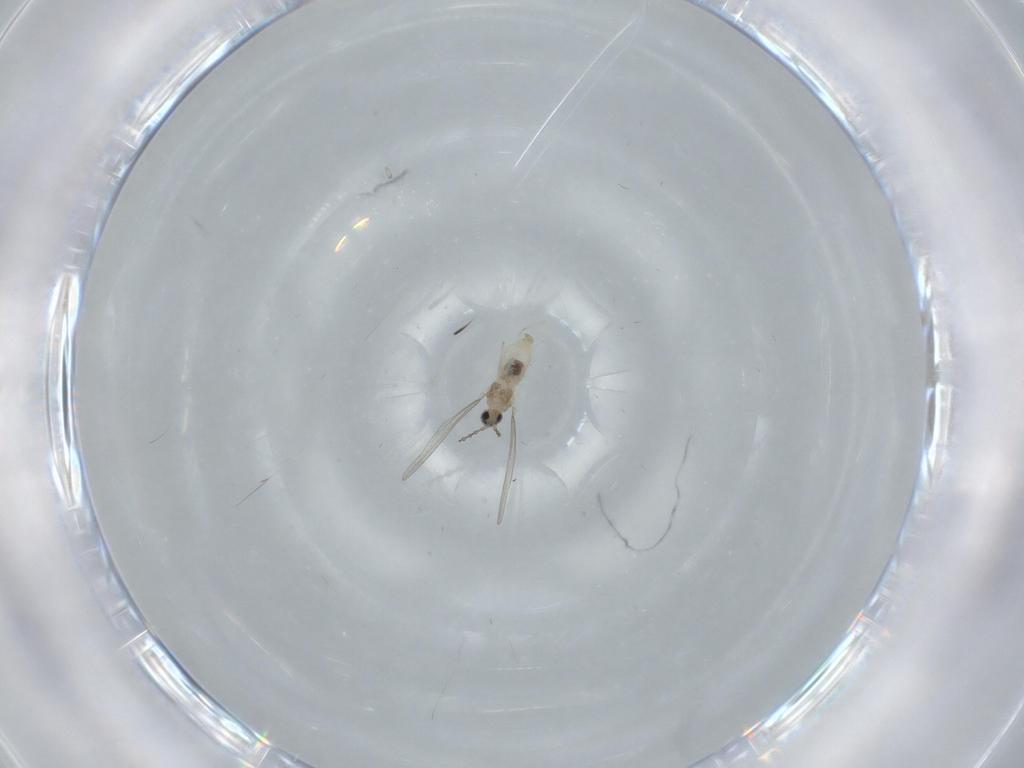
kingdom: Animalia
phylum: Arthropoda
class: Insecta
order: Diptera
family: Cecidomyiidae
